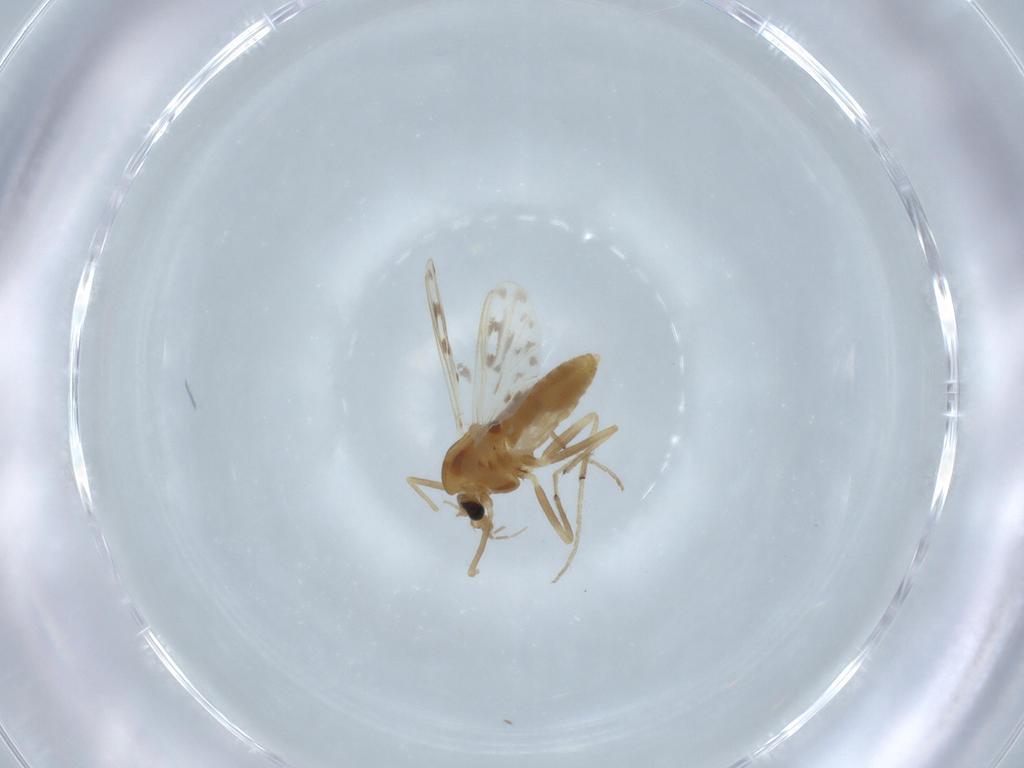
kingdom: Animalia
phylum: Arthropoda
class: Insecta
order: Diptera
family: Chironomidae
